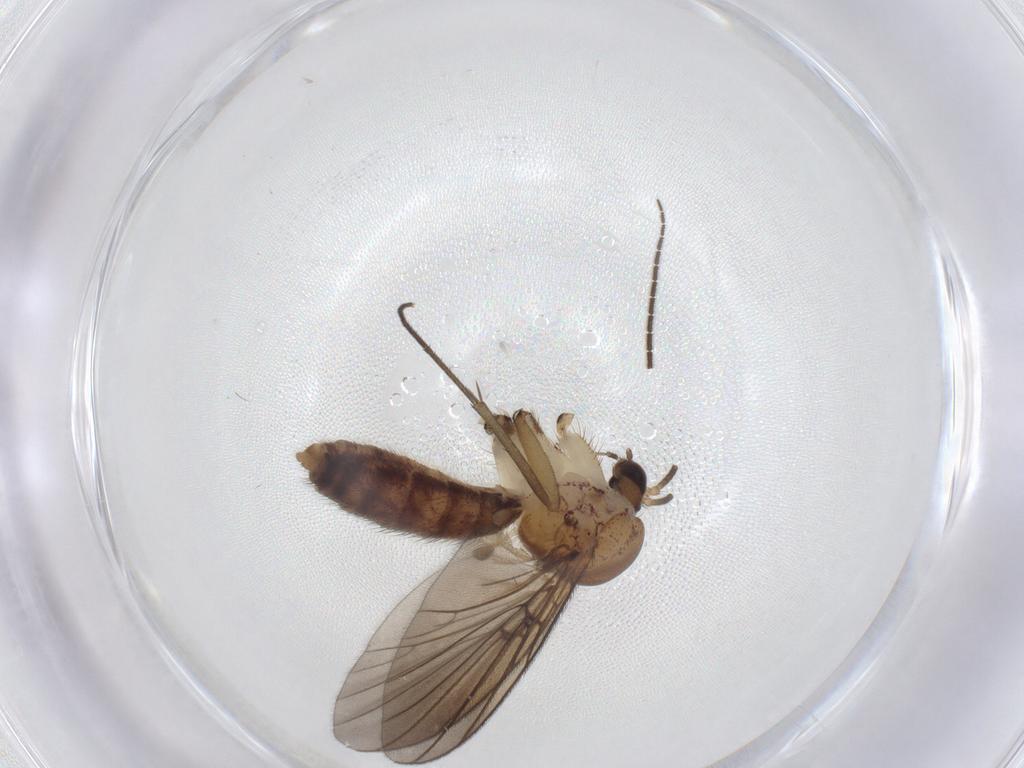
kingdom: Animalia
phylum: Arthropoda
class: Insecta
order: Diptera
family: Sciaridae
